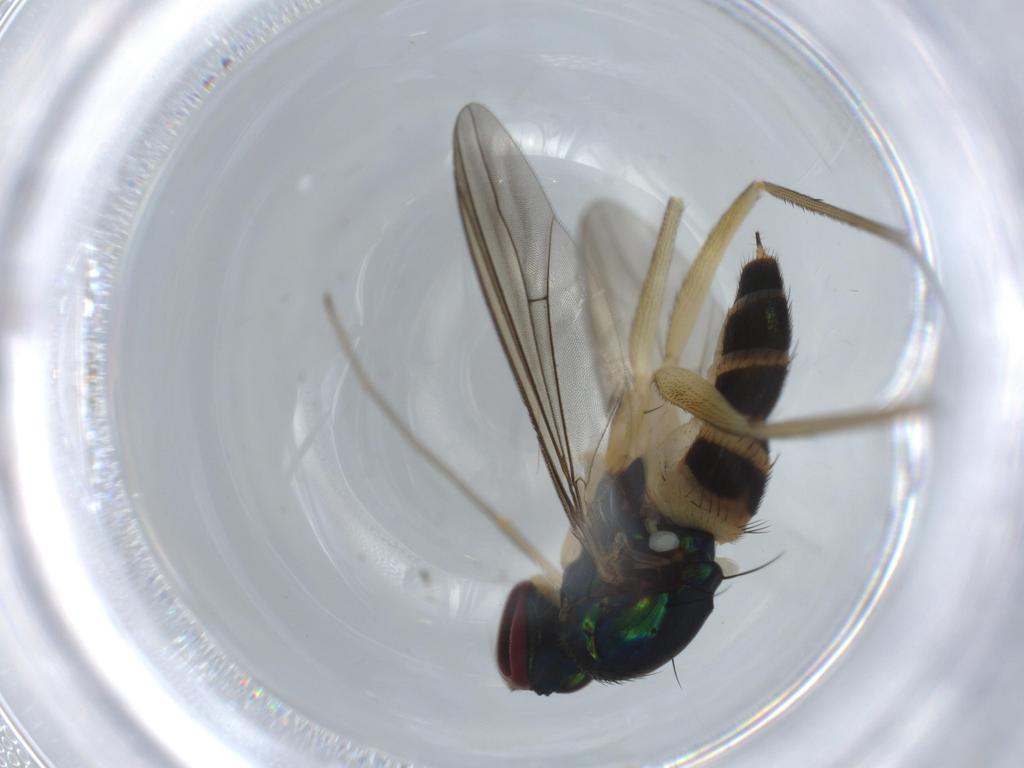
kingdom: Animalia
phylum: Arthropoda
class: Insecta
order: Diptera
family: Dolichopodidae
